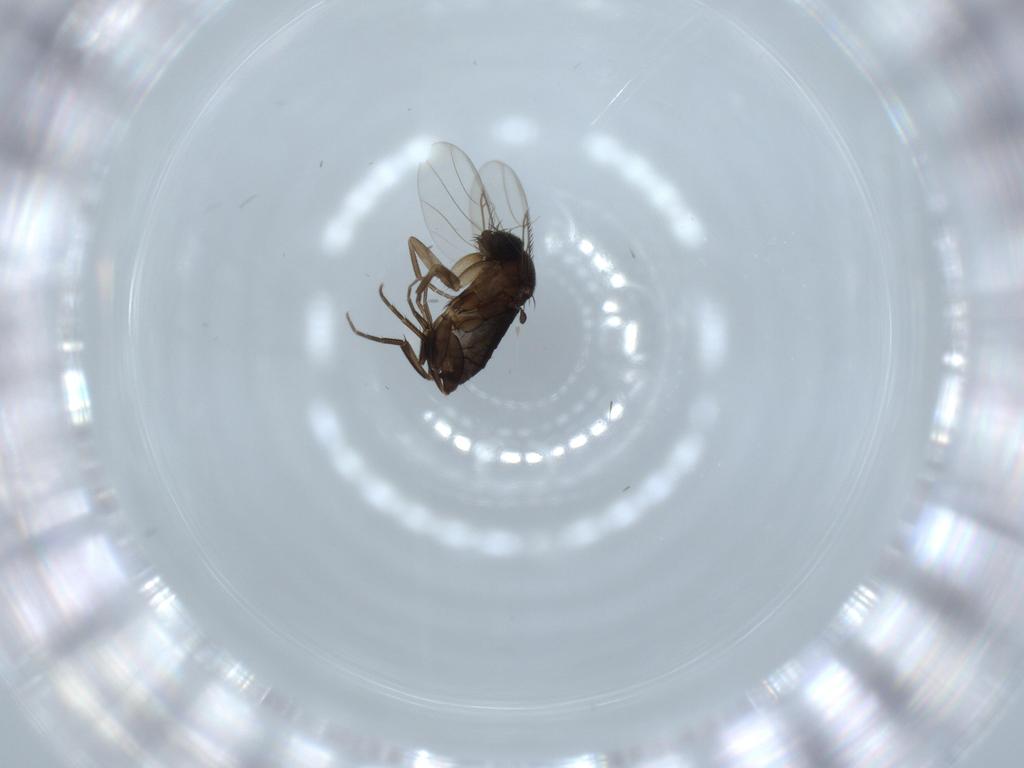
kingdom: Animalia
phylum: Arthropoda
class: Insecta
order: Diptera
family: Phoridae
